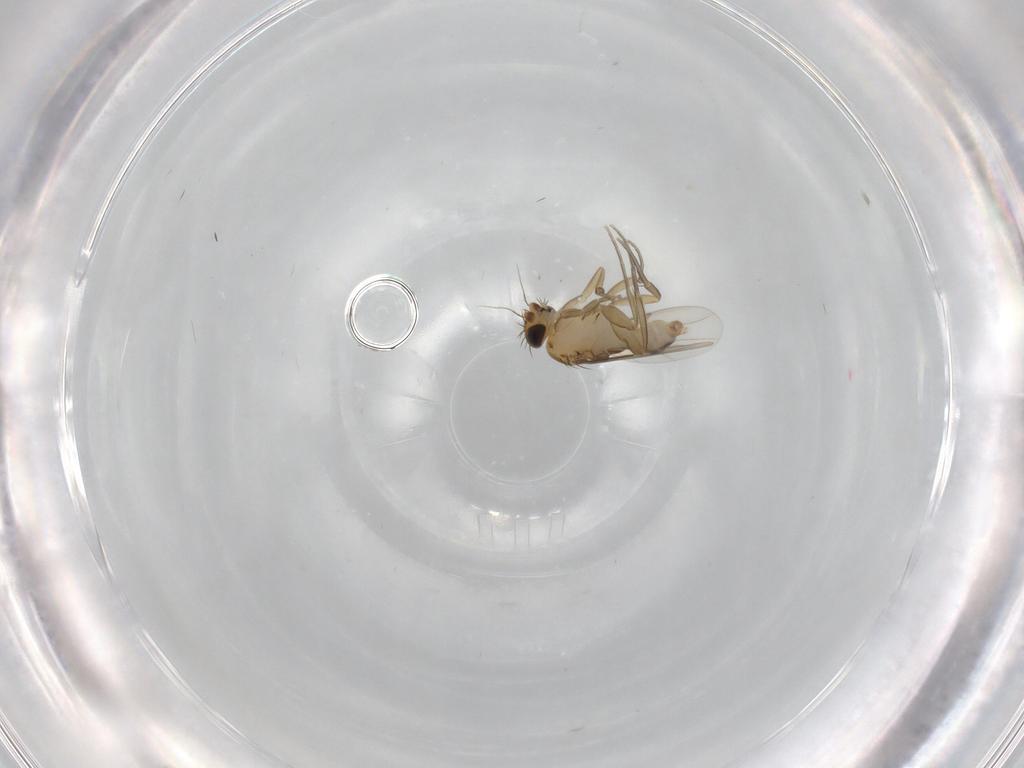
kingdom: Animalia
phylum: Arthropoda
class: Insecta
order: Diptera
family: Phoridae
